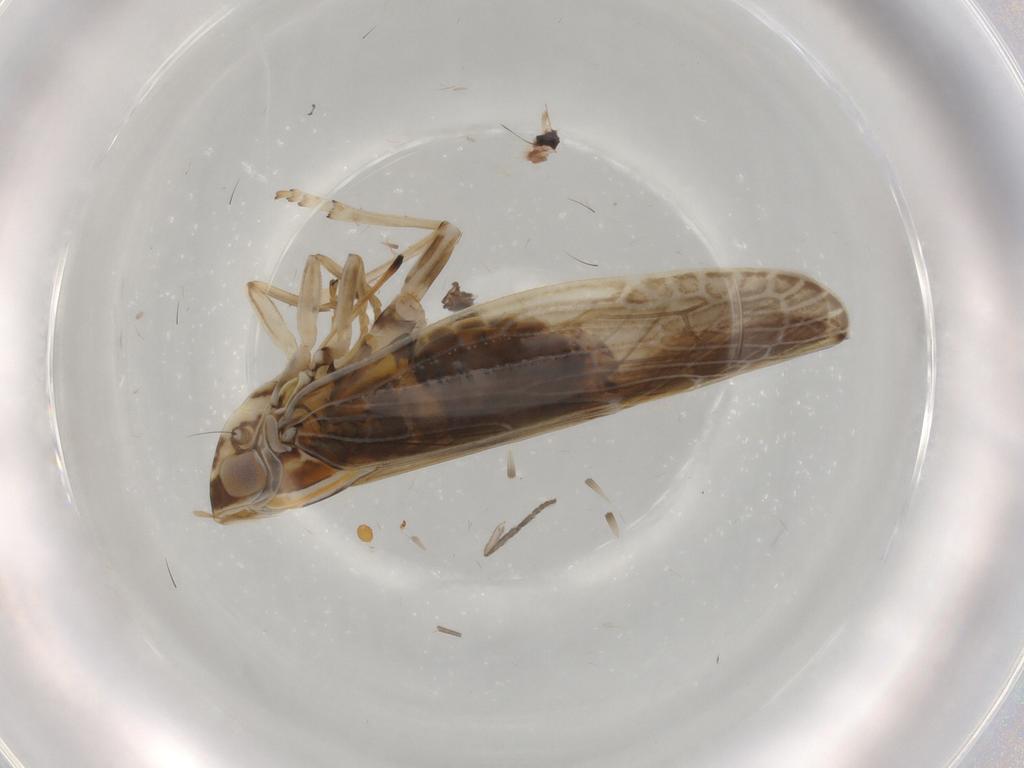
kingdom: Animalia
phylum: Arthropoda
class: Insecta
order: Hemiptera
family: Achilidae
